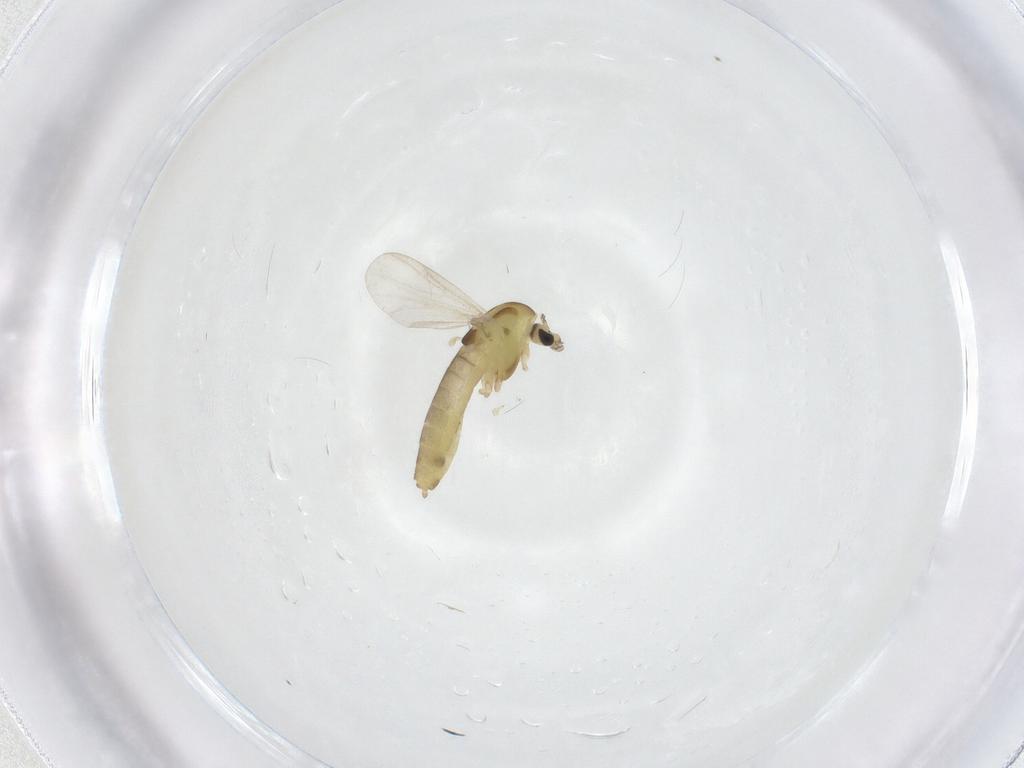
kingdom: Animalia
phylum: Arthropoda
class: Insecta
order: Diptera
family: Chironomidae
